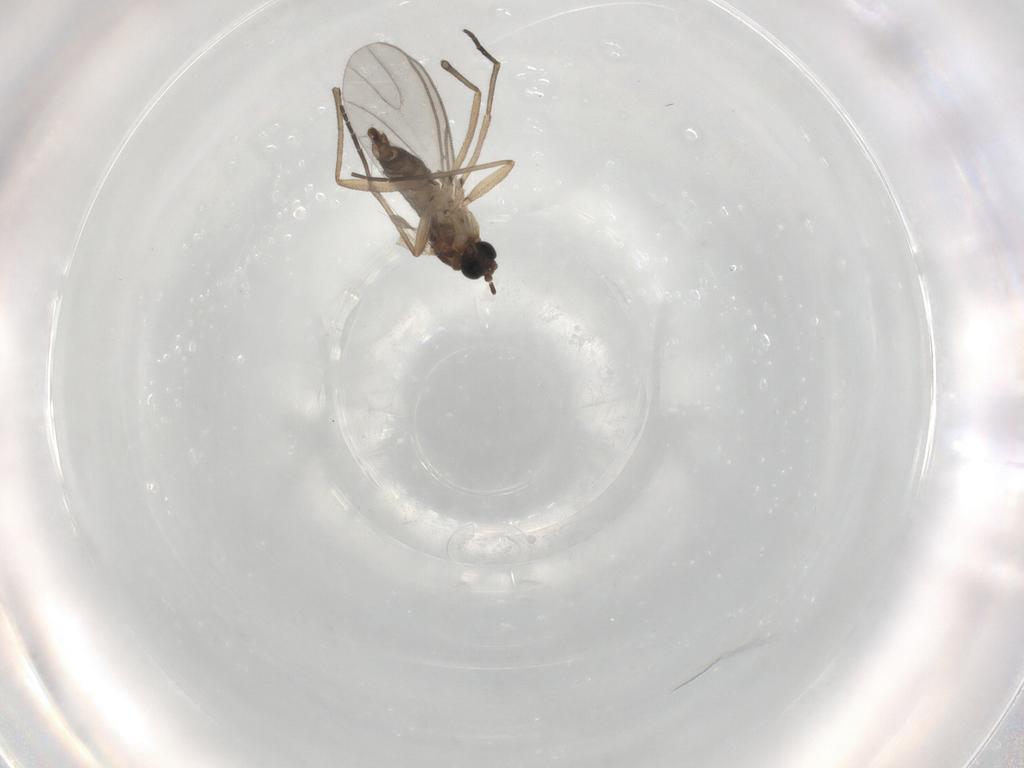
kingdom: Animalia
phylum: Arthropoda
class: Insecta
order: Diptera
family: Sciaridae
